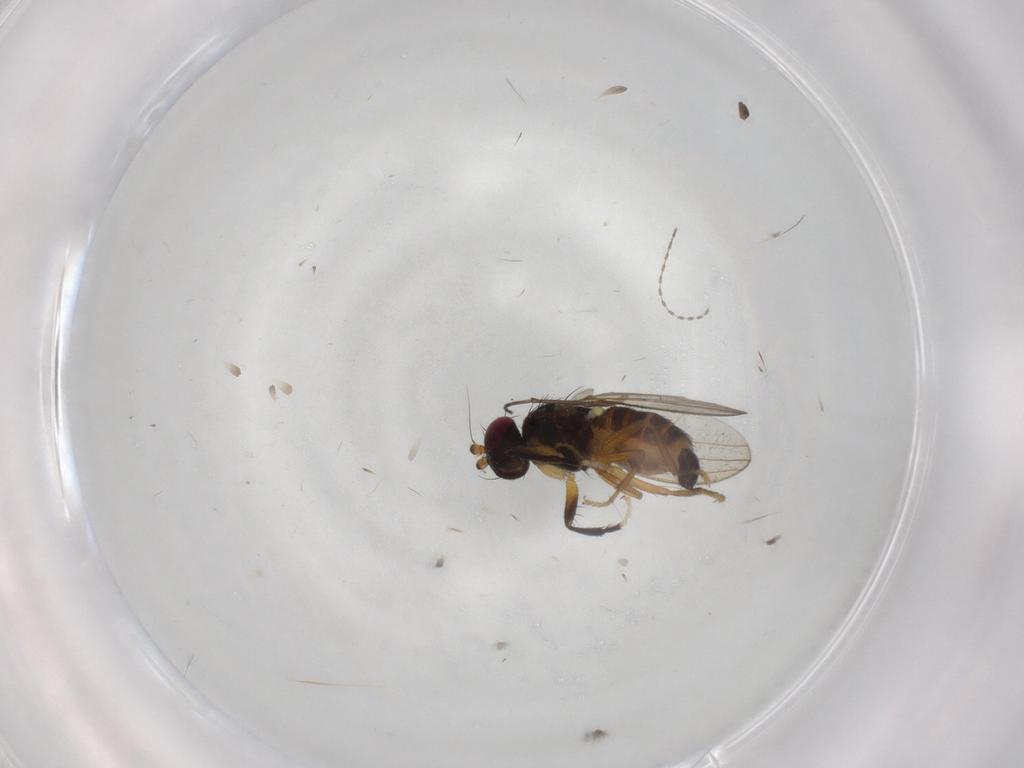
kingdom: Animalia
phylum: Arthropoda
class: Insecta
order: Diptera
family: Pseudopomyzidae
